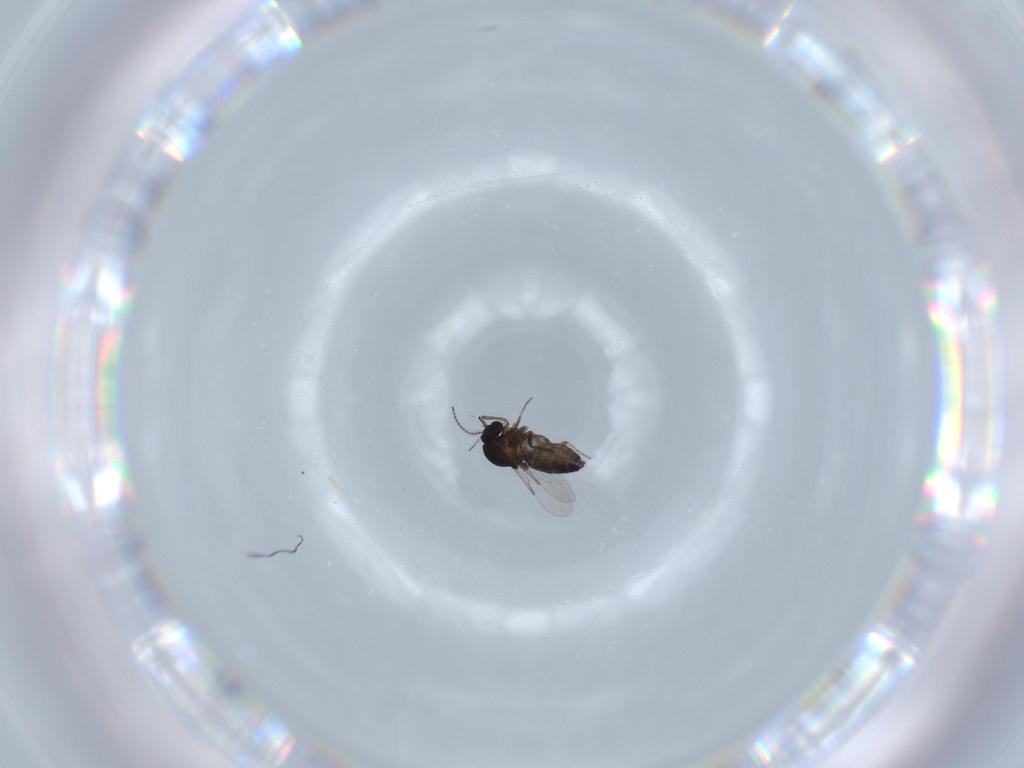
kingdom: Animalia
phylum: Arthropoda
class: Insecta
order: Diptera
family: Ceratopogonidae
